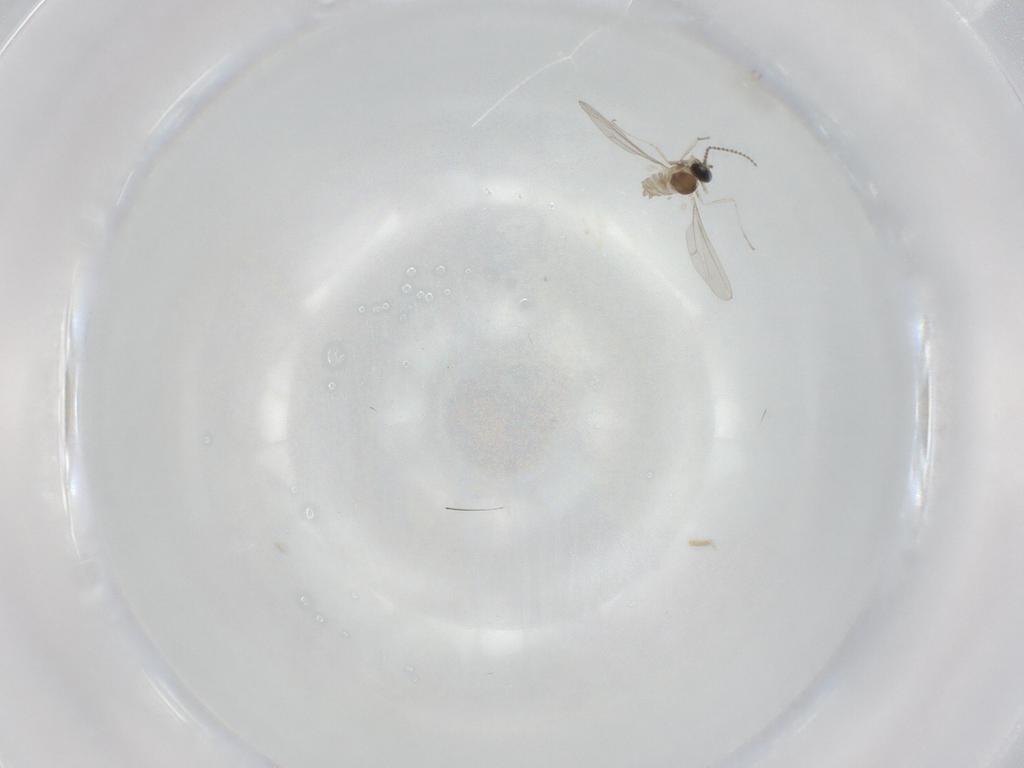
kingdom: Animalia
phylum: Arthropoda
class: Insecta
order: Diptera
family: Cecidomyiidae
